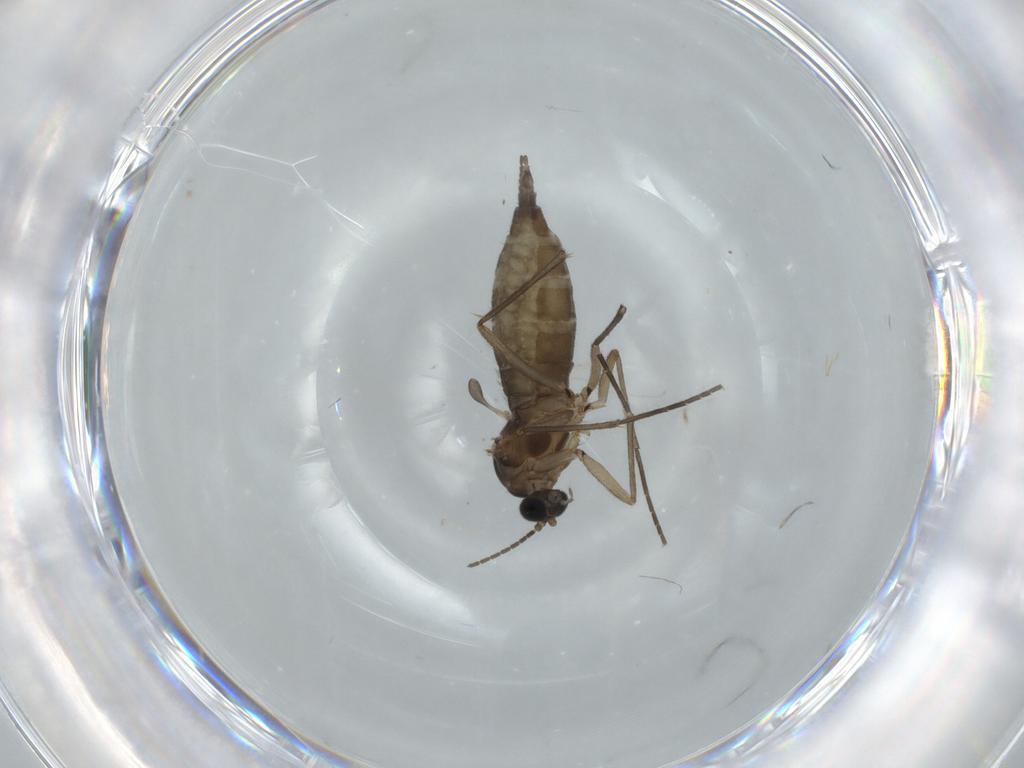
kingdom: Animalia
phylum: Arthropoda
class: Insecta
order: Diptera
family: Sciaridae
